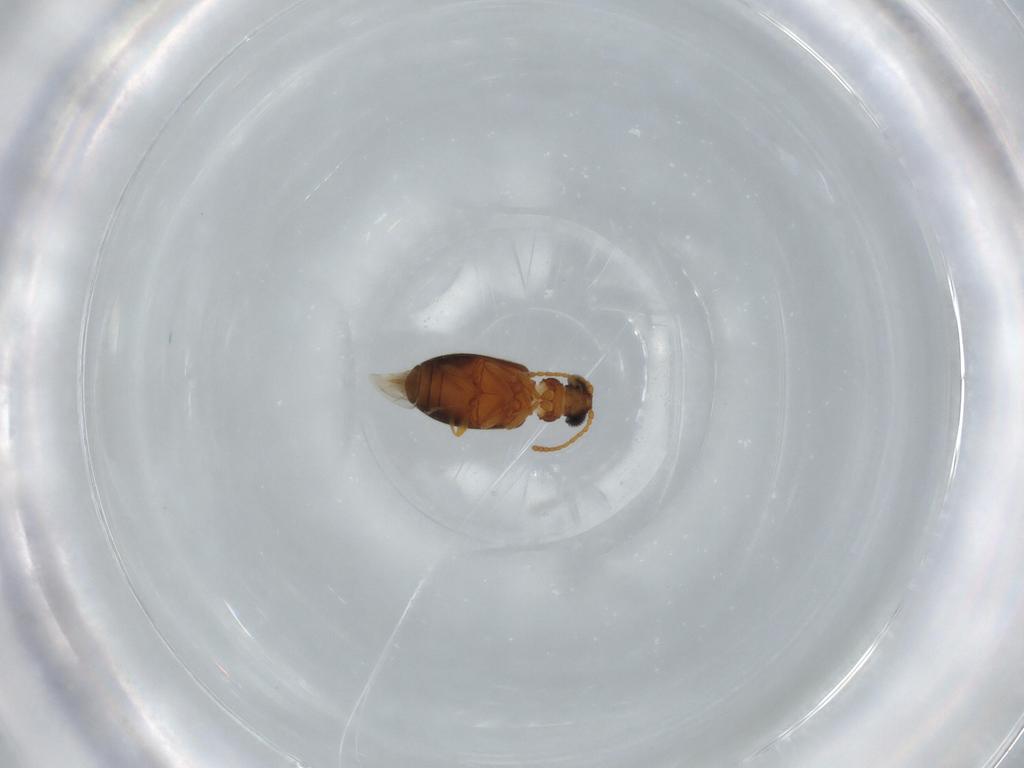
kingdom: Animalia
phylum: Arthropoda
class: Insecta
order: Coleoptera
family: Aderidae
